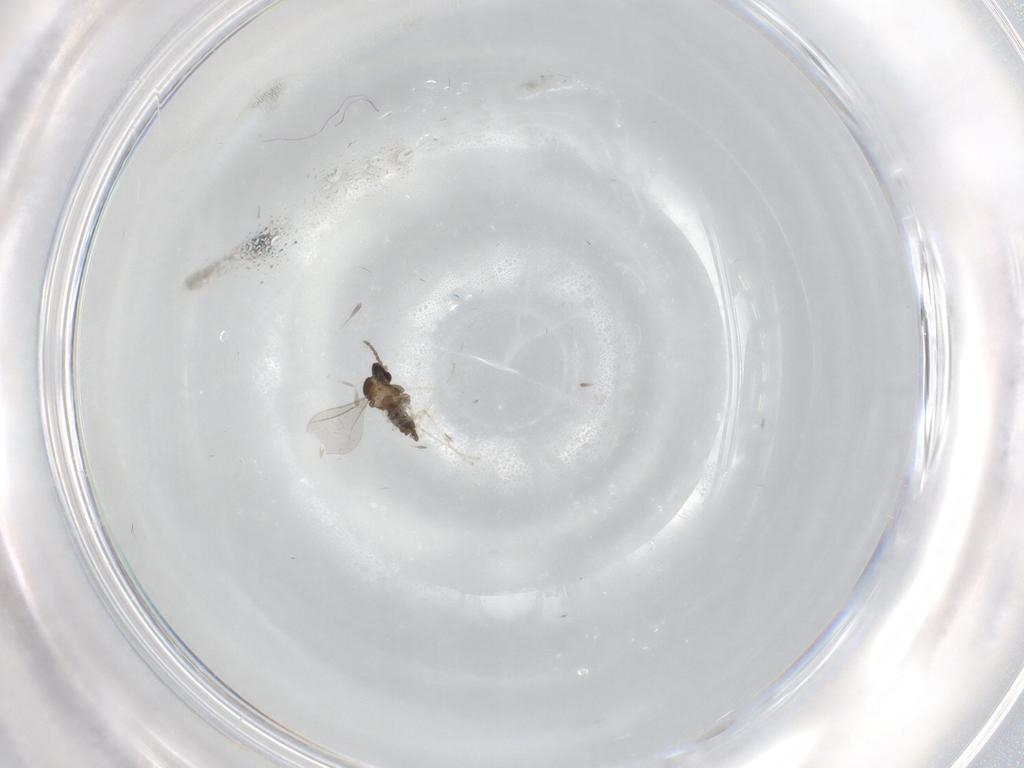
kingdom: Animalia
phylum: Arthropoda
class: Insecta
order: Diptera
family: Cecidomyiidae
